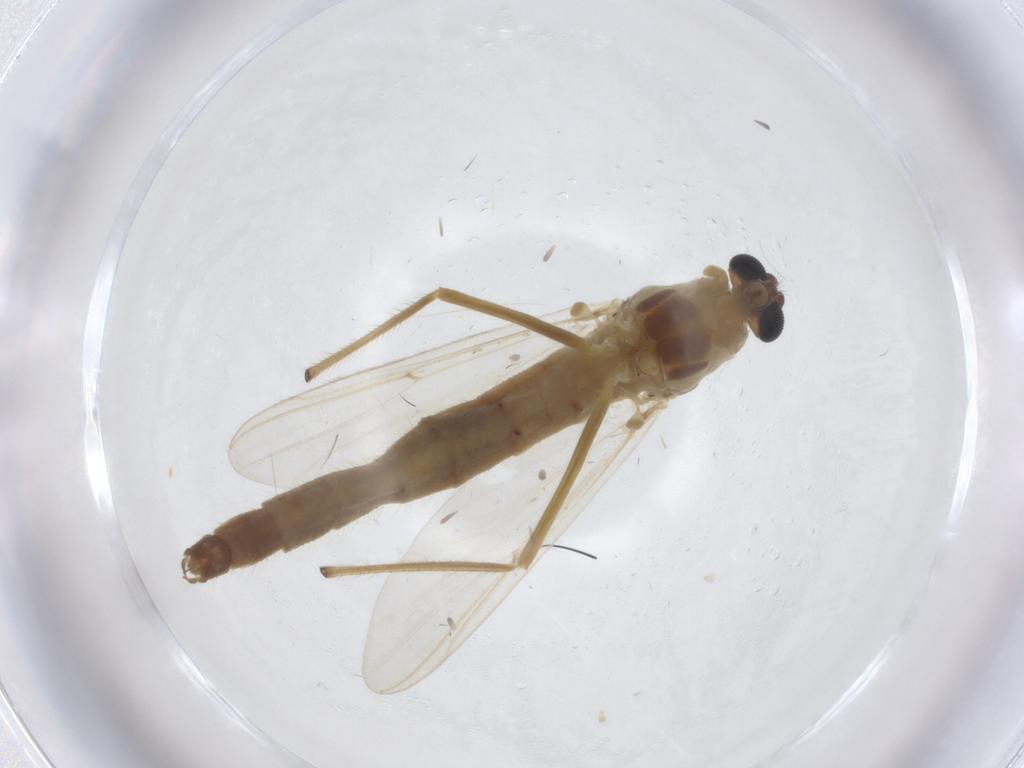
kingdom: Animalia
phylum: Arthropoda
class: Insecta
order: Diptera
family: Chironomidae
